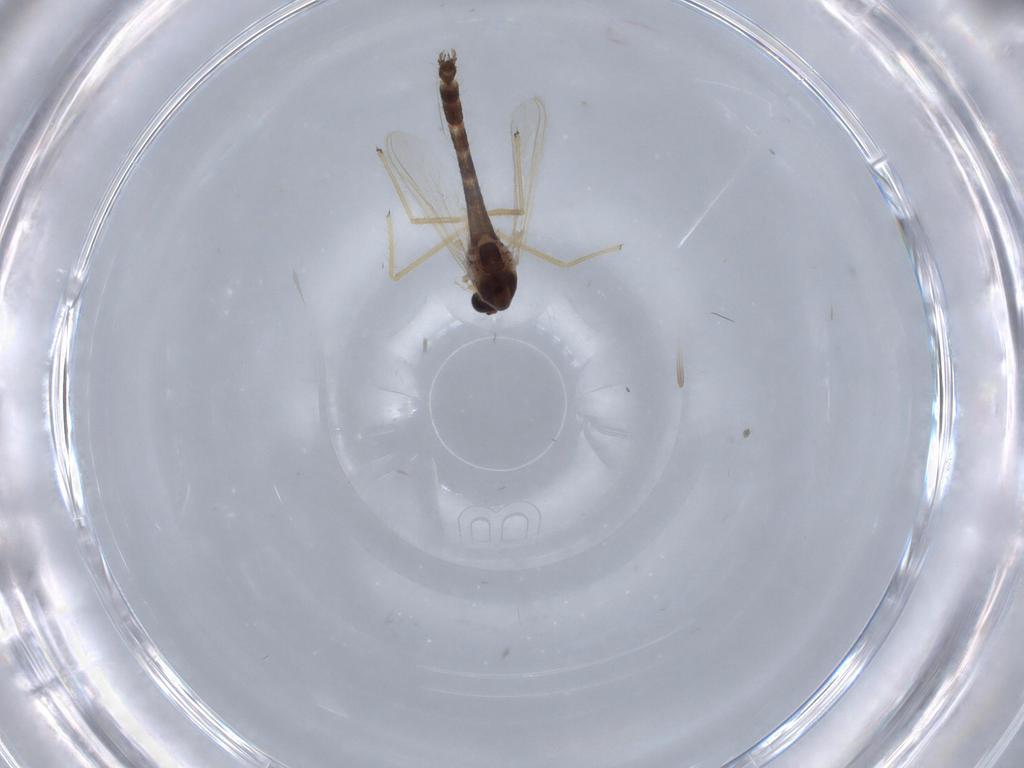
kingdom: Animalia
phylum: Arthropoda
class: Insecta
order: Diptera
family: Chironomidae
